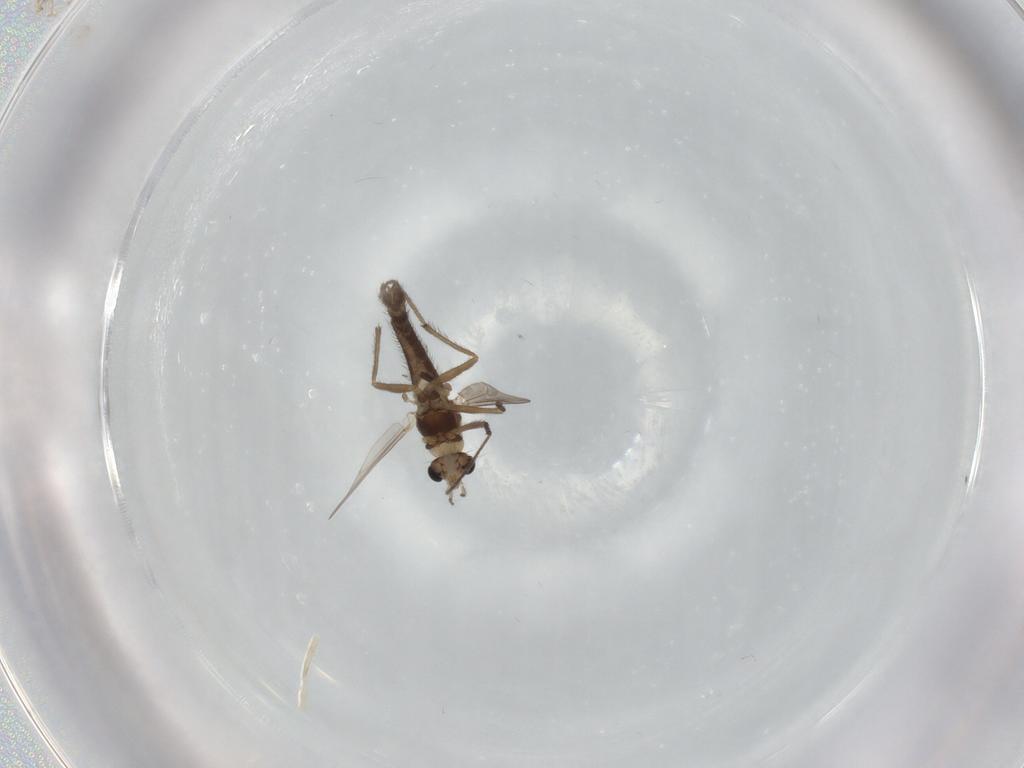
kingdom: Animalia
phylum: Arthropoda
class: Insecta
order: Diptera
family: Chironomidae
